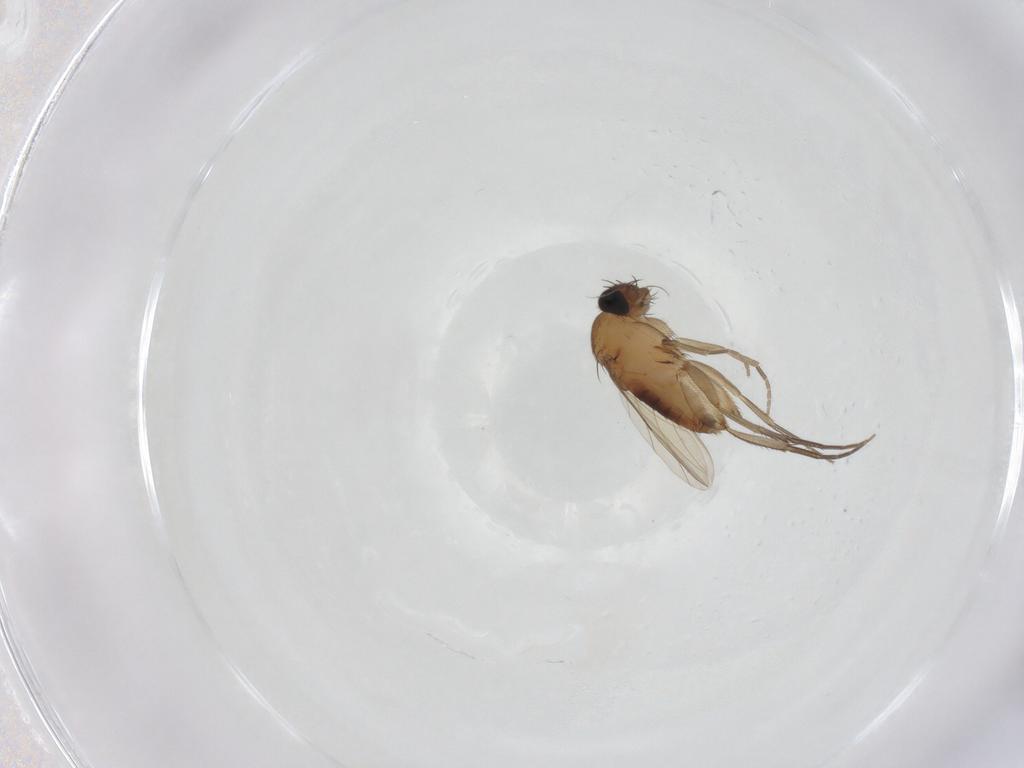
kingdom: Animalia
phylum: Arthropoda
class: Insecta
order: Diptera
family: Phoridae
